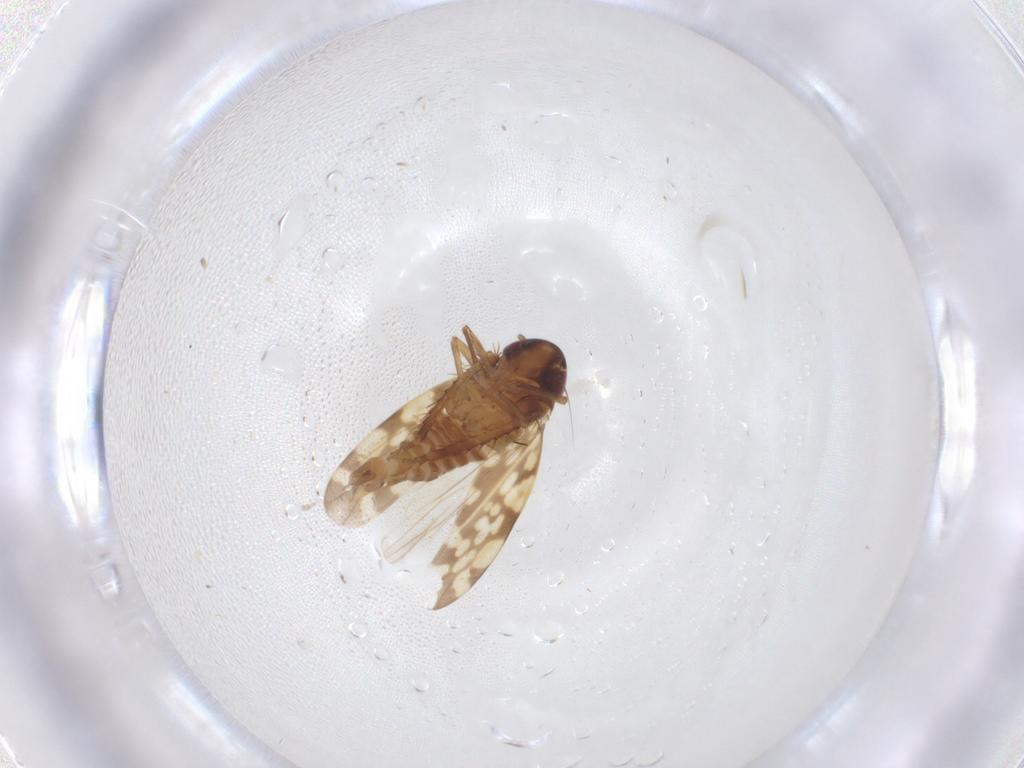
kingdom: Animalia
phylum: Arthropoda
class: Insecta
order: Hemiptera
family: Cicadellidae
